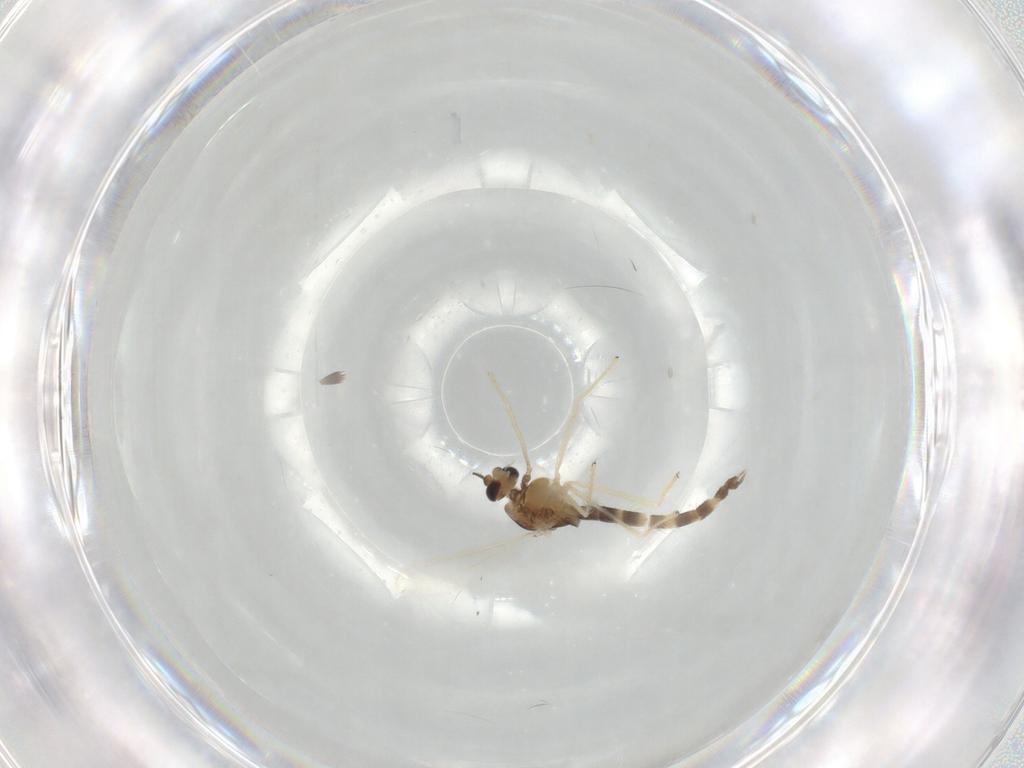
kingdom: Animalia
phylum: Arthropoda
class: Insecta
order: Diptera
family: Chironomidae
